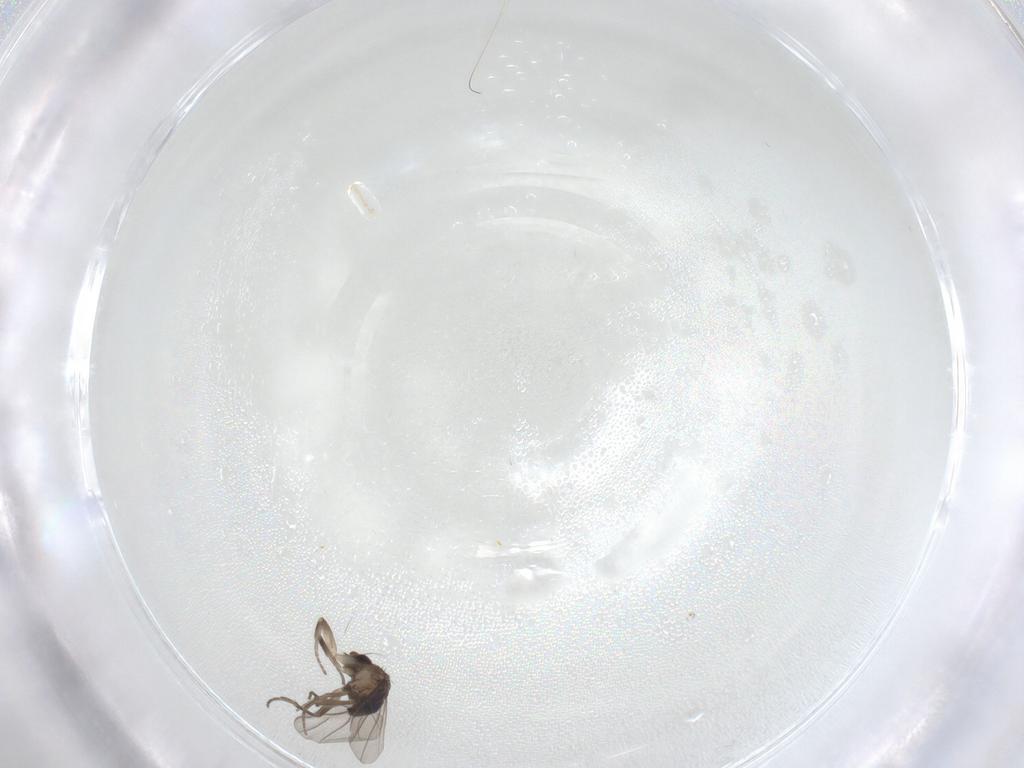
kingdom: Animalia
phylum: Arthropoda
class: Insecta
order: Diptera
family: Cecidomyiidae
